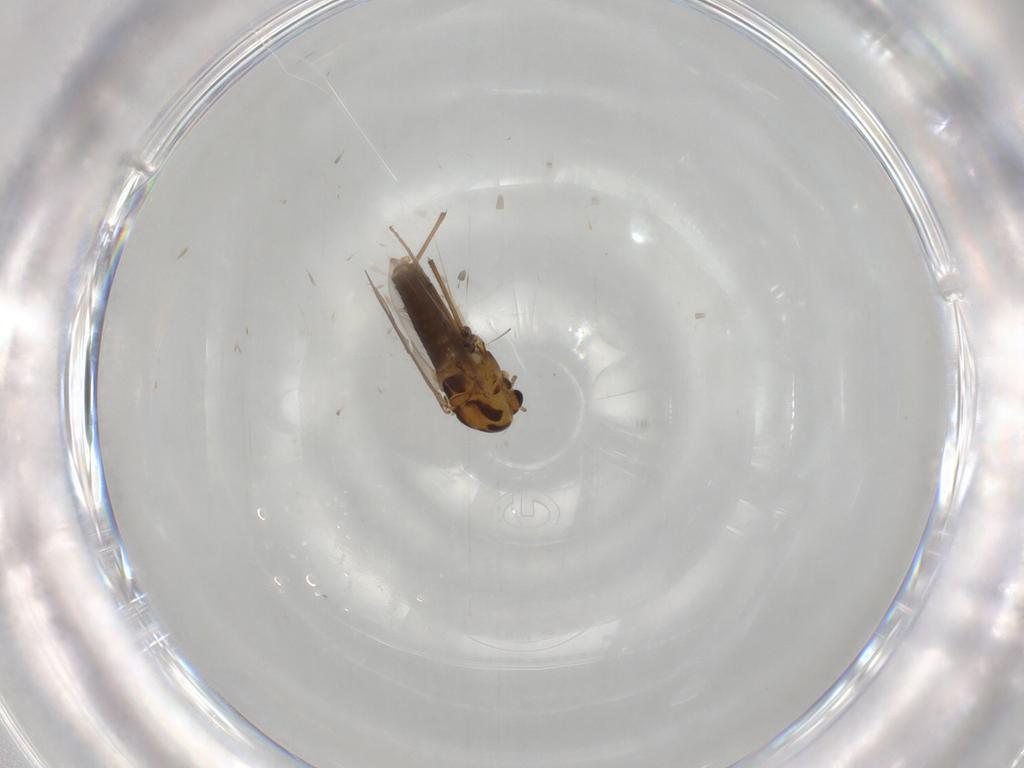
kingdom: Animalia
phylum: Arthropoda
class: Insecta
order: Diptera
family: Chironomidae
